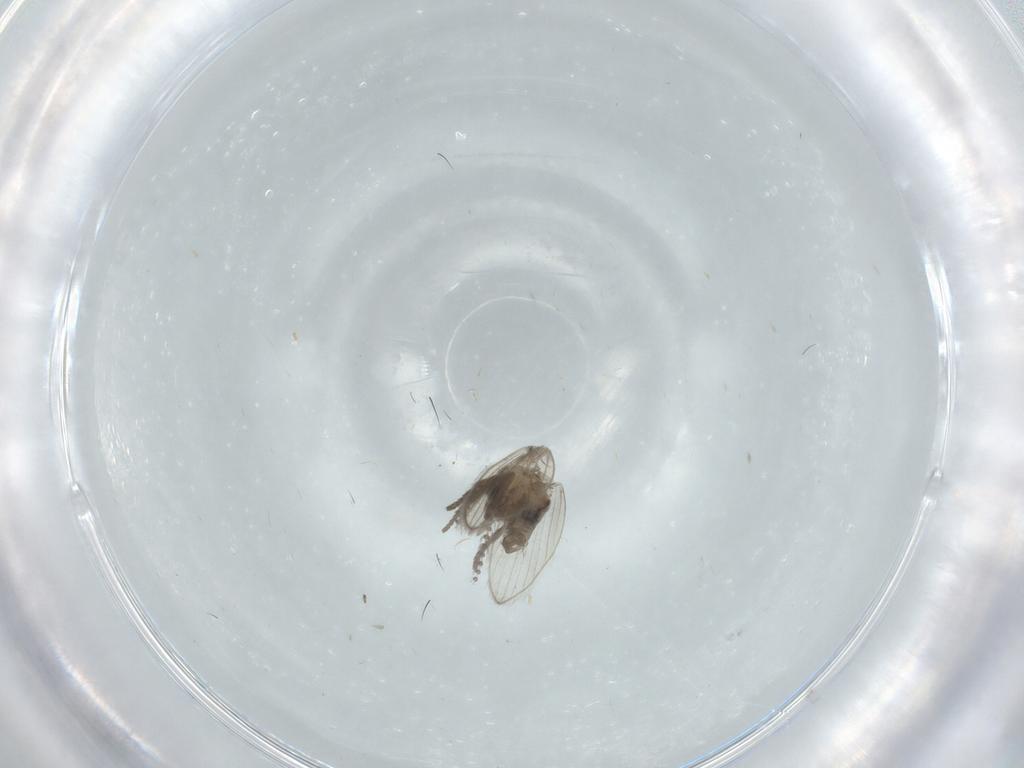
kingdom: Animalia
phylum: Arthropoda
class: Insecta
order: Diptera
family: Psychodidae
